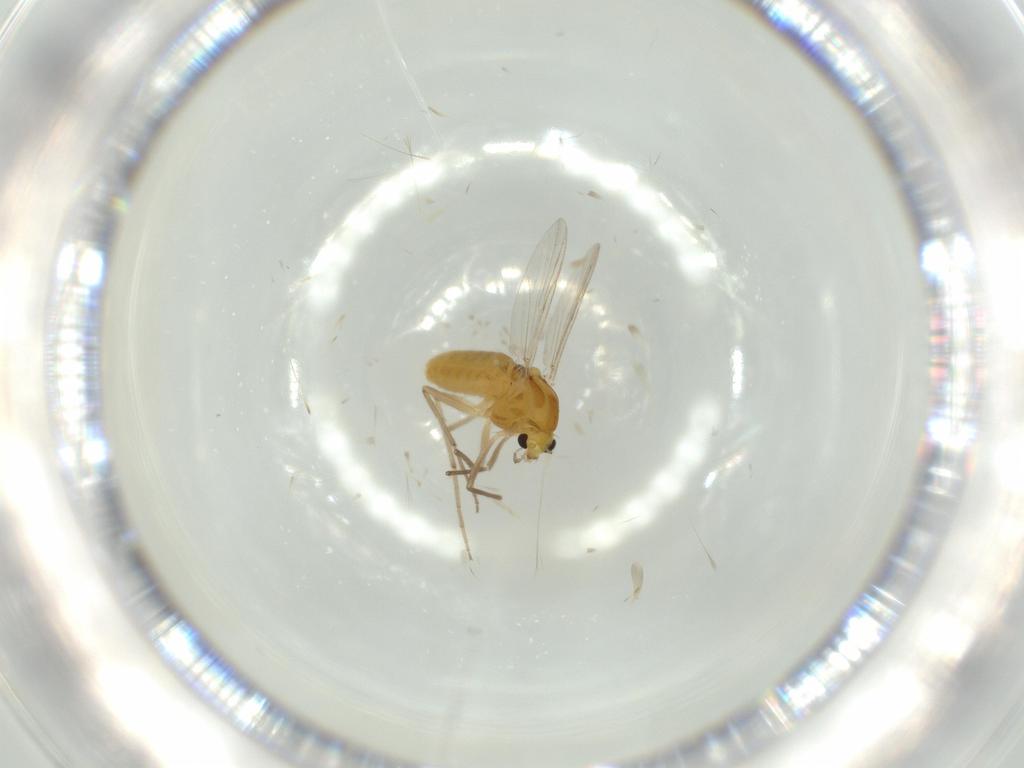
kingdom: Animalia
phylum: Arthropoda
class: Insecta
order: Diptera
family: Chironomidae
